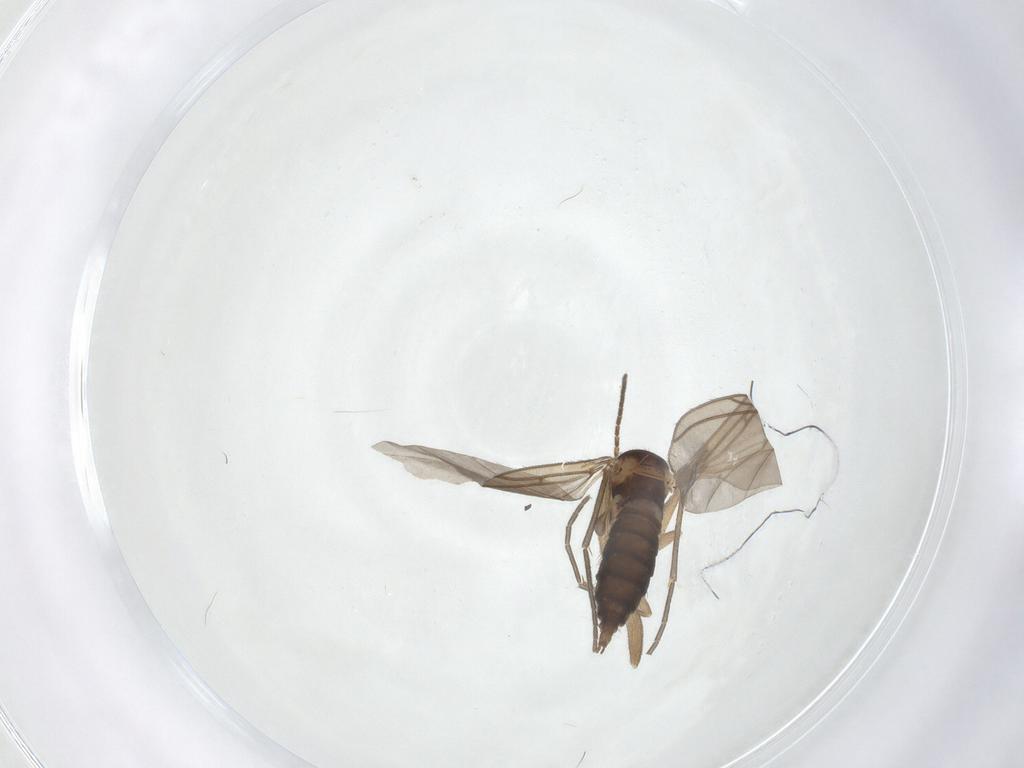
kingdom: Animalia
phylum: Arthropoda
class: Insecta
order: Diptera
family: Cecidomyiidae
